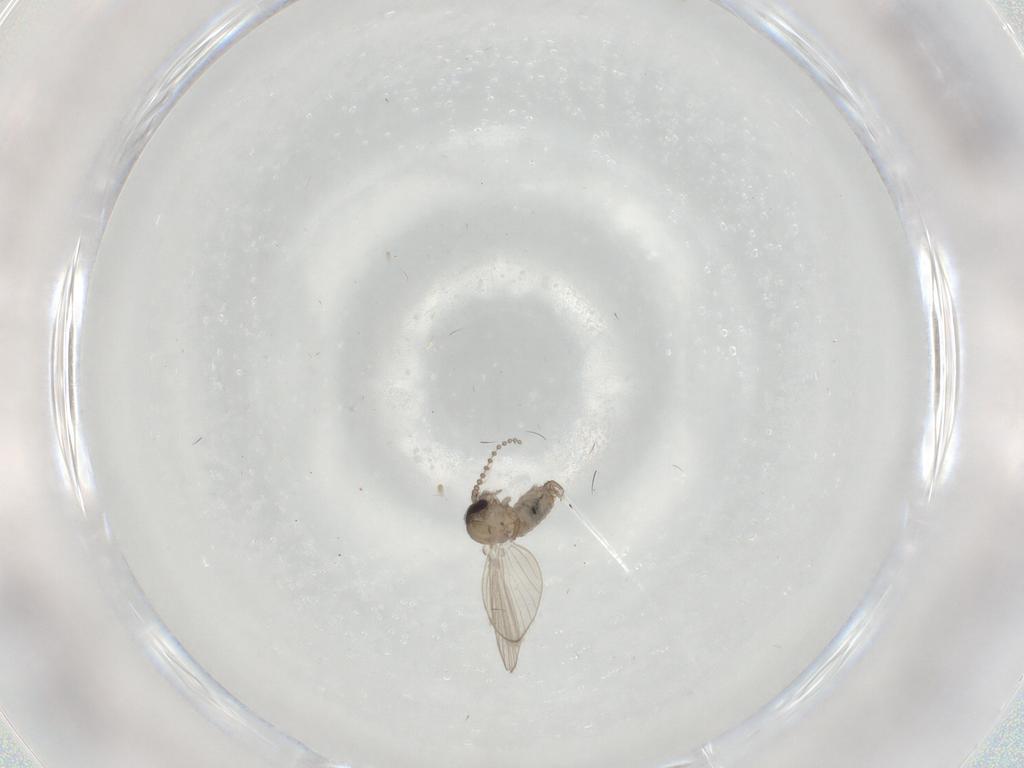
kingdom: Animalia
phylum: Arthropoda
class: Insecta
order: Diptera
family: Psychodidae
